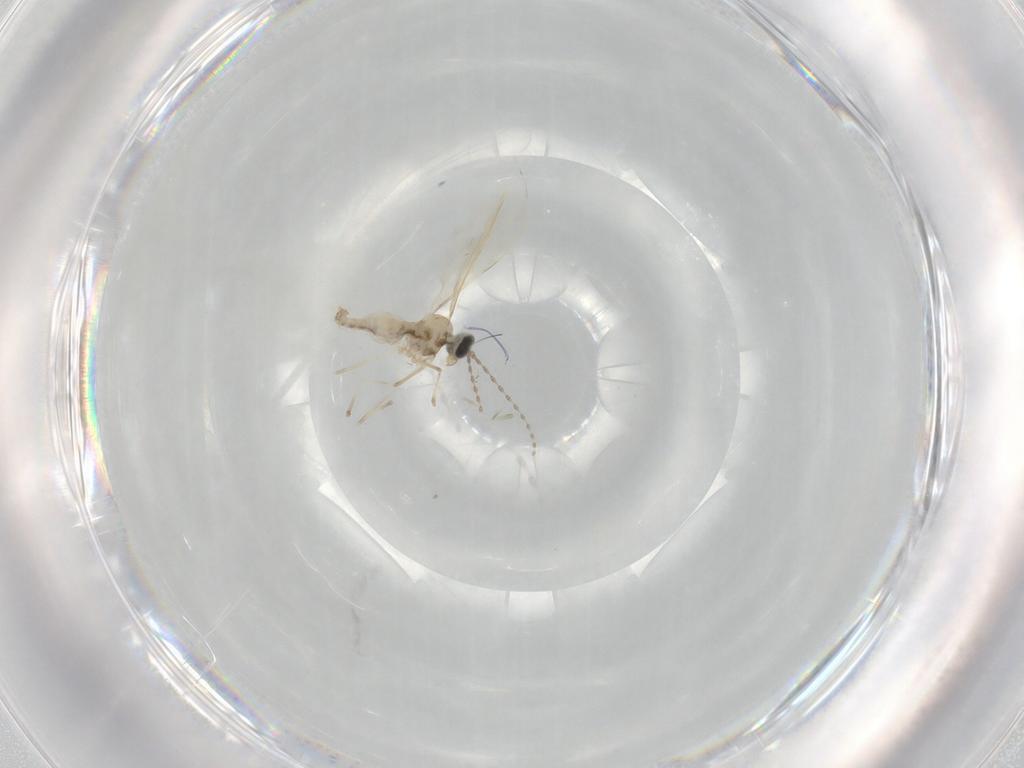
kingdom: Animalia
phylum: Arthropoda
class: Insecta
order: Diptera
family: Cecidomyiidae
